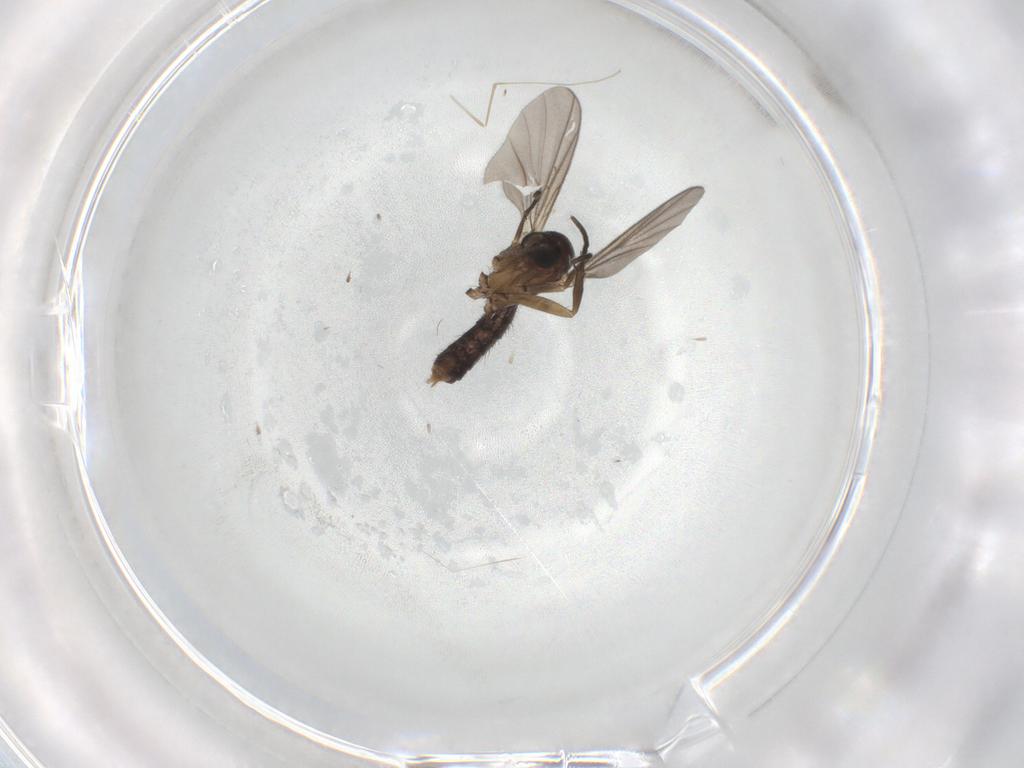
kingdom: Animalia
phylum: Arthropoda
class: Insecta
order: Diptera
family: Mycetophilidae
